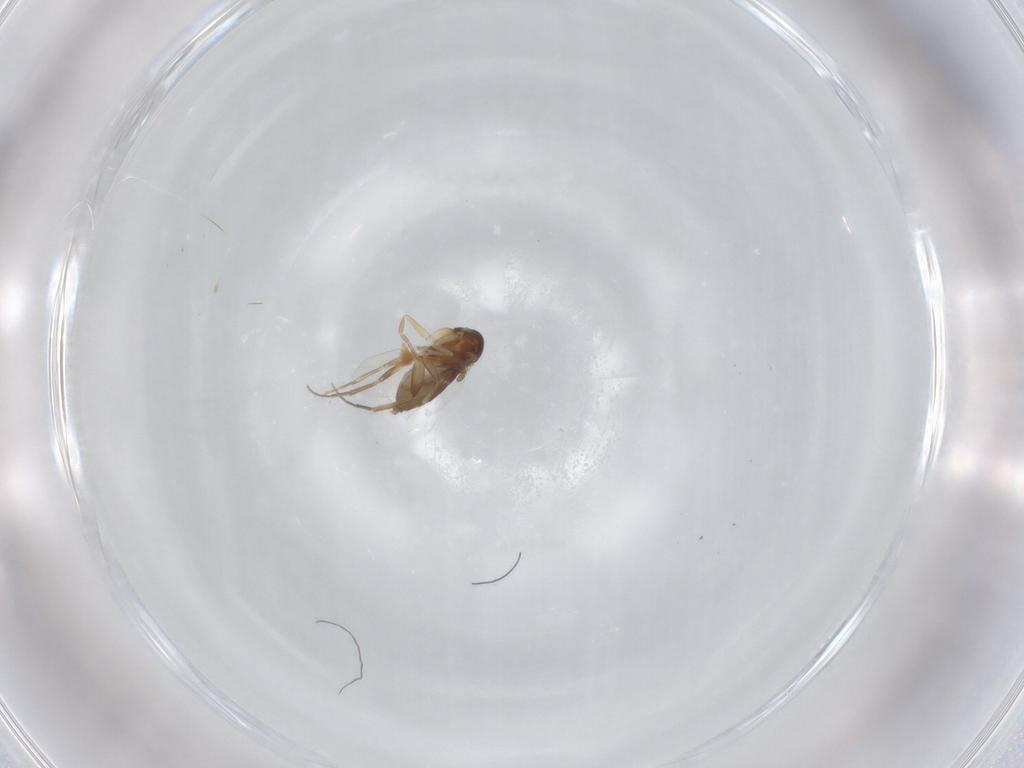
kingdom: Animalia
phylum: Arthropoda
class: Insecta
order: Diptera
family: Phoridae
